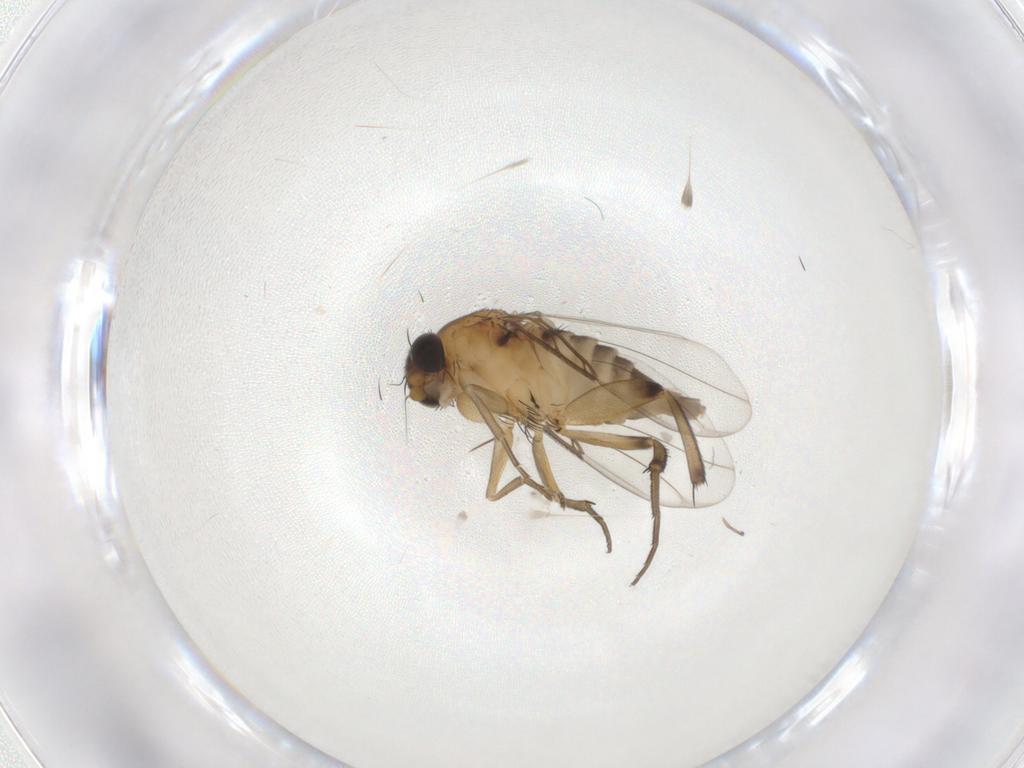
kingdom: Animalia
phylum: Arthropoda
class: Insecta
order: Diptera
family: Phoridae
